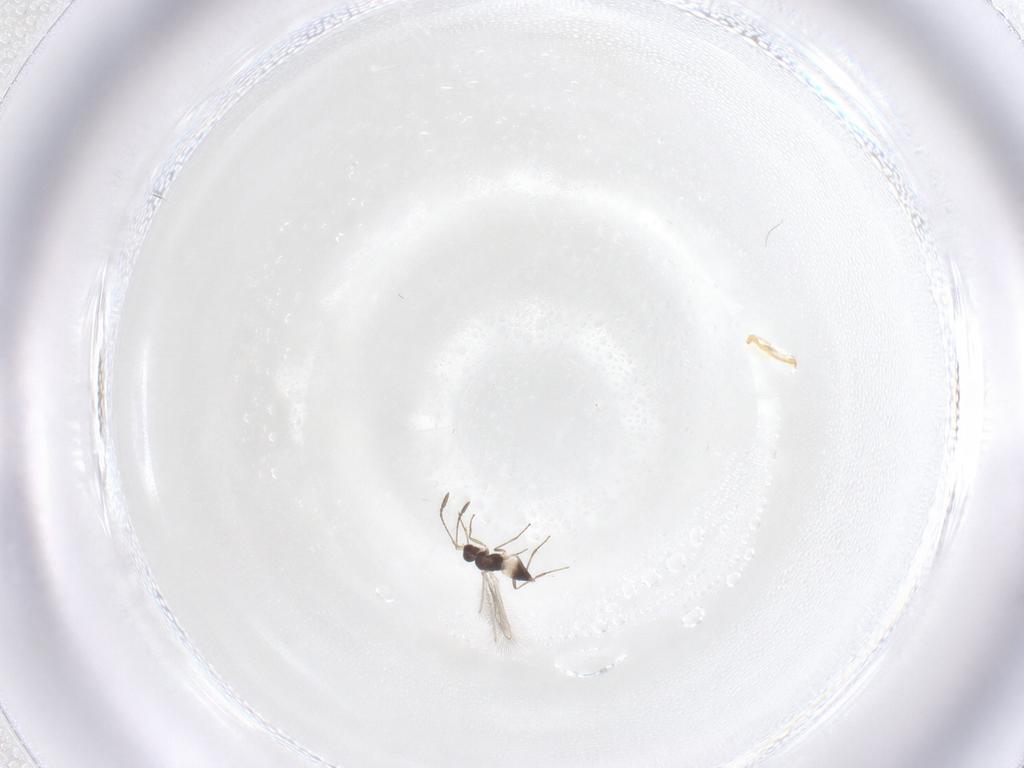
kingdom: Animalia
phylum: Arthropoda
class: Insecta
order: Hymenoptera
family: Mymaridae
